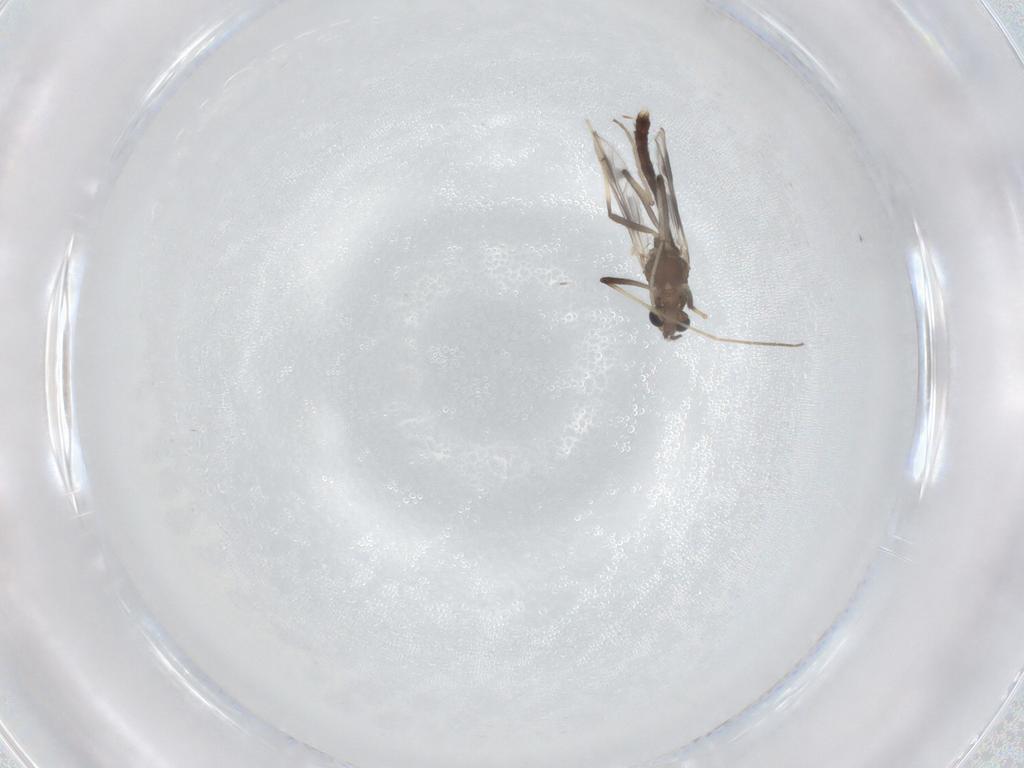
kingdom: Animalia
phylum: Arthropoda
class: Insecta
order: Diptera
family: Chironomidae
